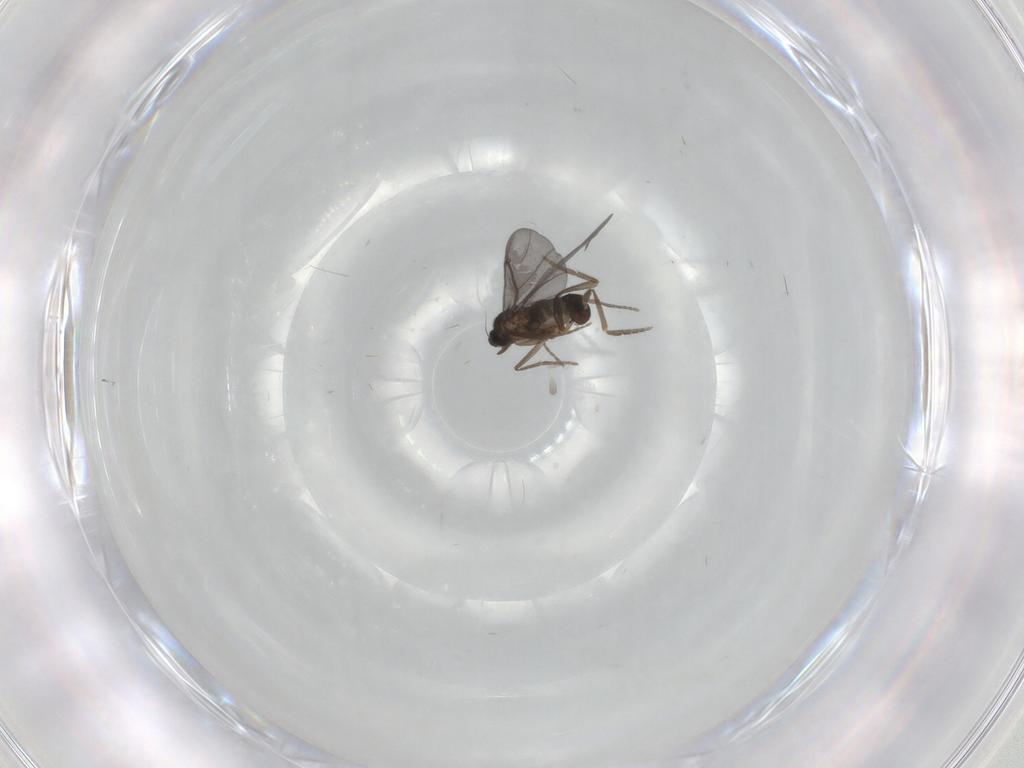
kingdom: Animalia
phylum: Arthropoda
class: Insecta
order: Diptera
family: Phoridae
